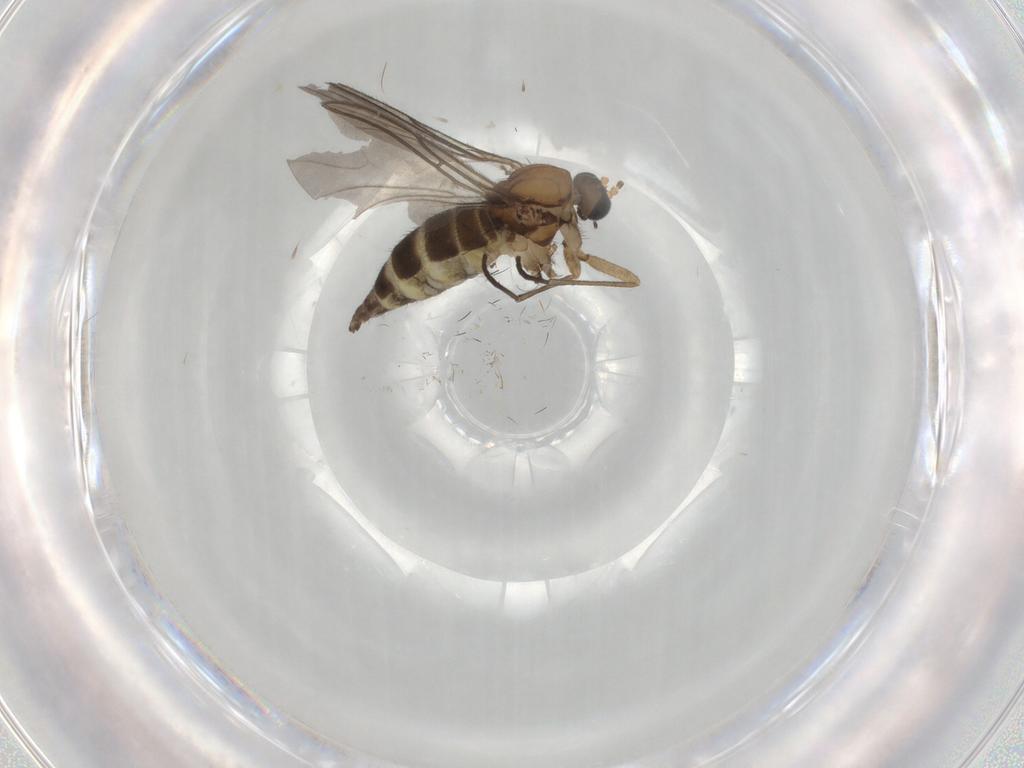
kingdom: Animalia
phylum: Arthropoda
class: Insecta
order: Diptera
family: Sciaridae
